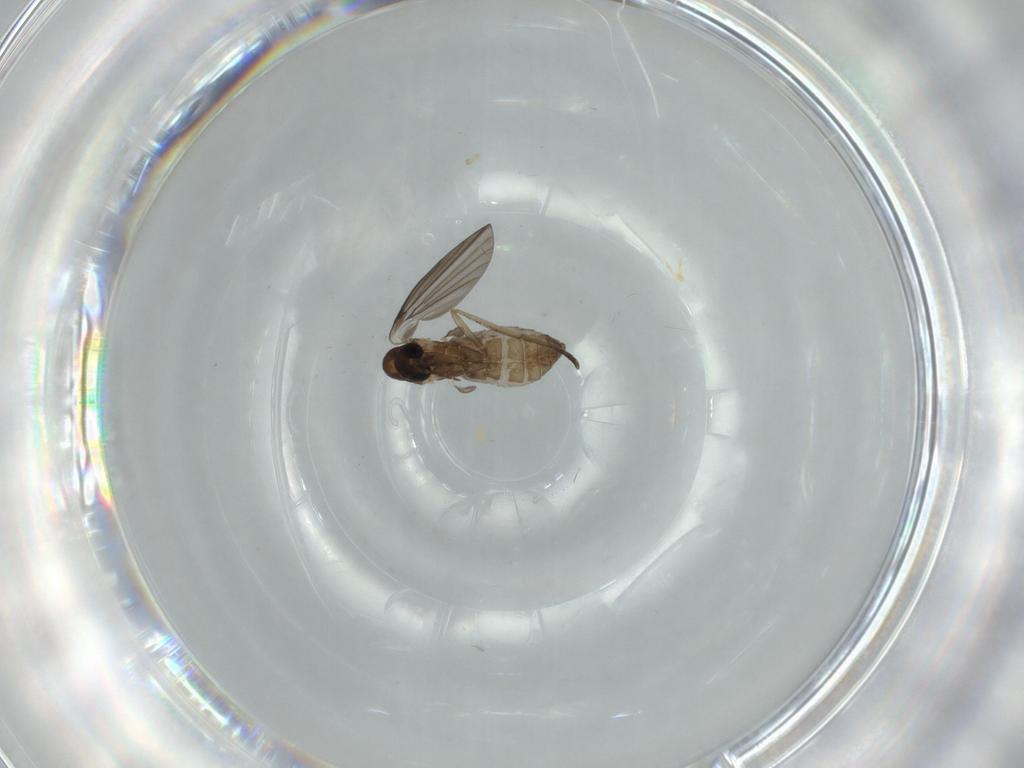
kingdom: Animalia
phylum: Arthropoda
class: Insecta
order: Diptera
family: Psychodidae
